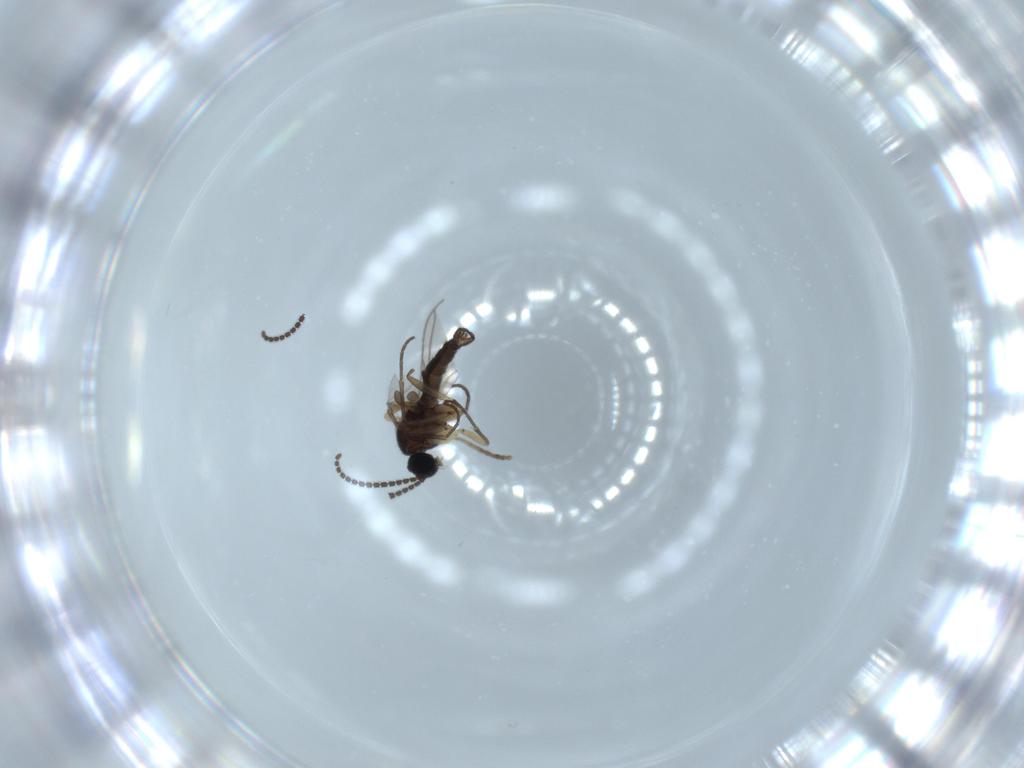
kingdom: Animalia
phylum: Arthropoda
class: Insecta
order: Diptera
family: Sciaridae
